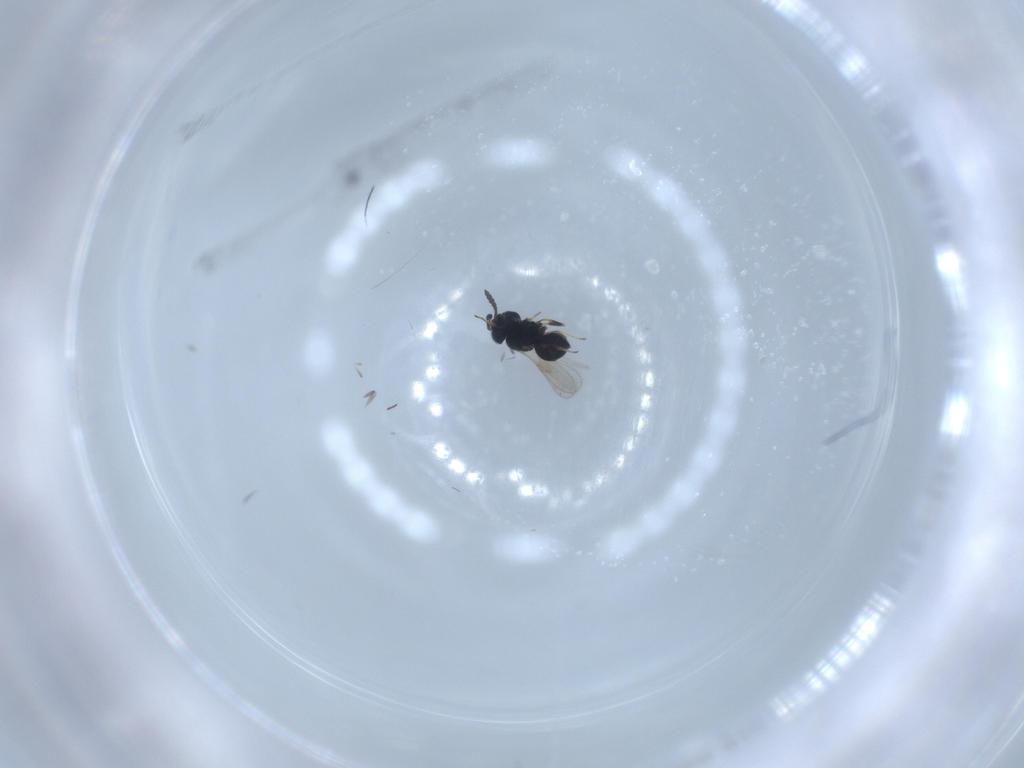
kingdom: Animalia
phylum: Arthropoda
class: Insecta
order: Hymenoptera
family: Scelionidae
